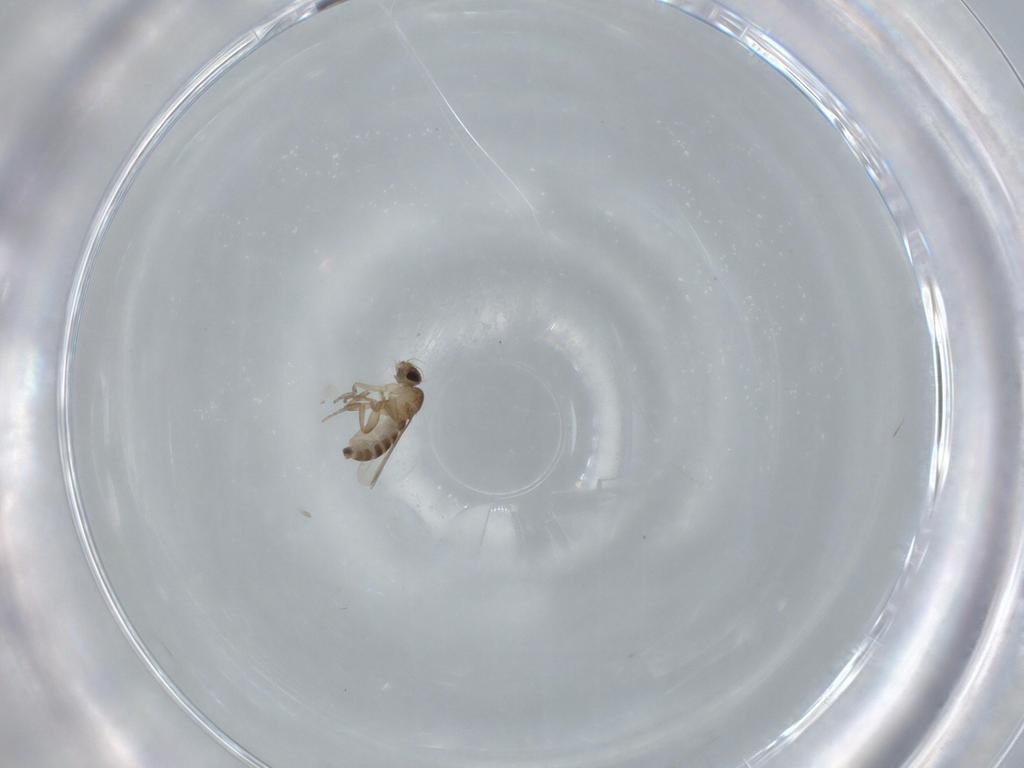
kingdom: Animalia
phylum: Arthropoda
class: Insecta
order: Diptera
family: Phoridae
